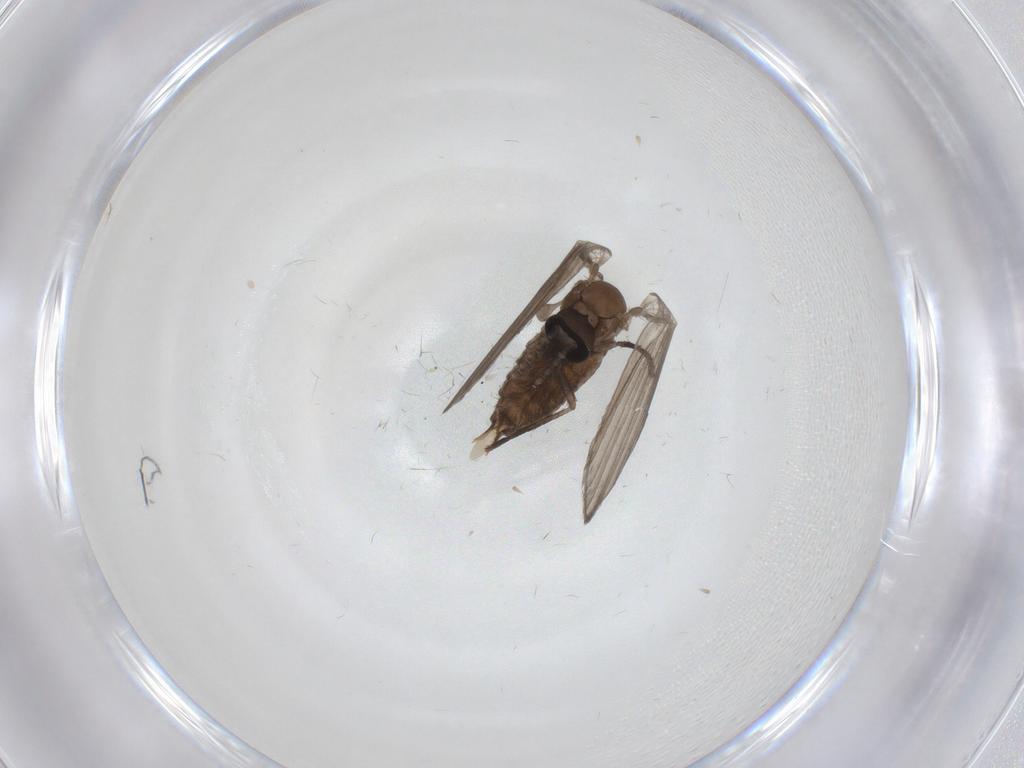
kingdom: Animalia
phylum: Arthropoda
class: Insecta
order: Diptera
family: Psychodidae
